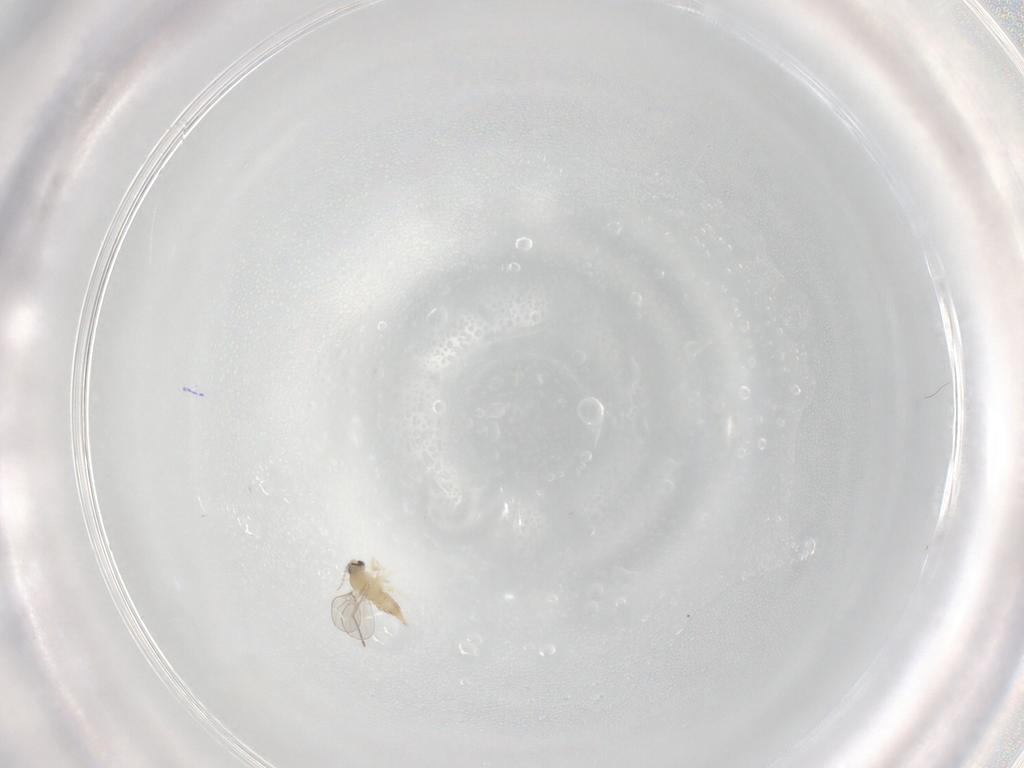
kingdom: Animalia
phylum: Arthropoda
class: Insecta
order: Diptera
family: Cecidomyiidae
